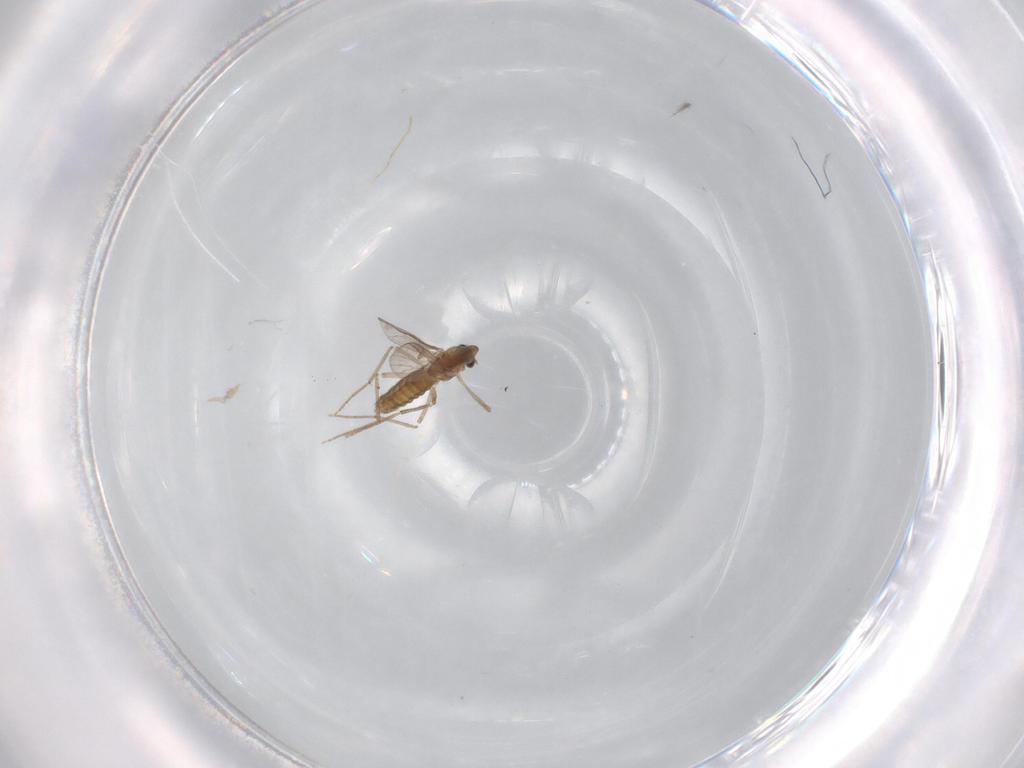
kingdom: Animalia
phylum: Arthropoda
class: Insecta
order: Diptera
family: Chironomidae
